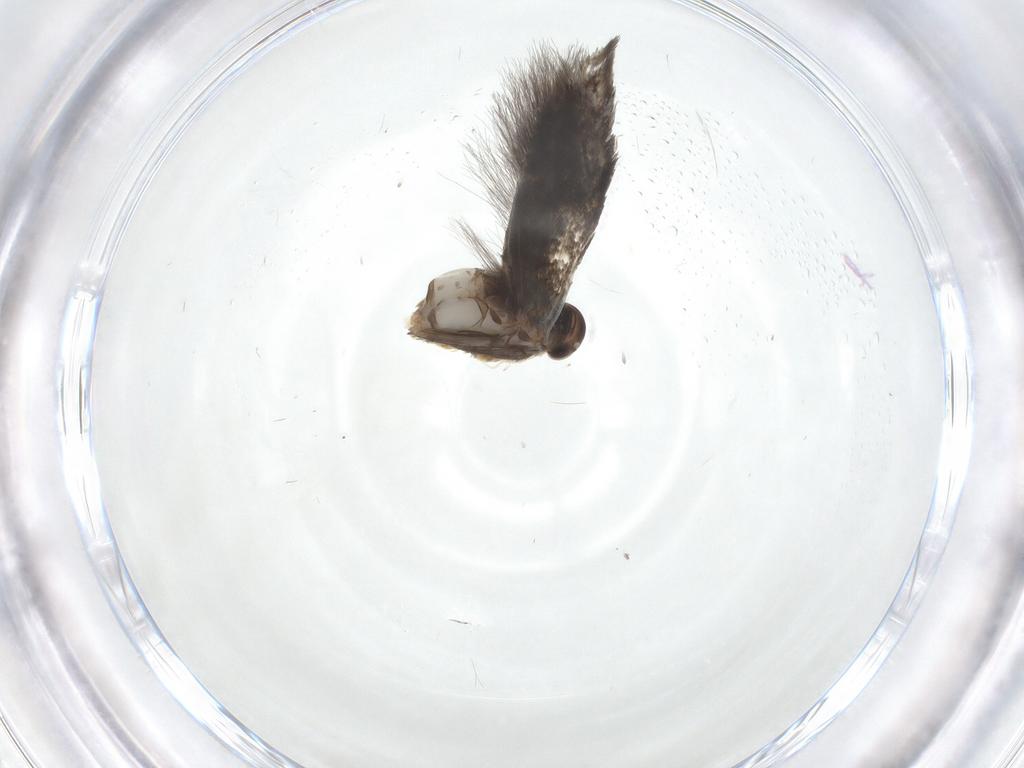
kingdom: Animalia
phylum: Arthropoda
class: Insecta
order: Lepidoptera
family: Elachistidae
